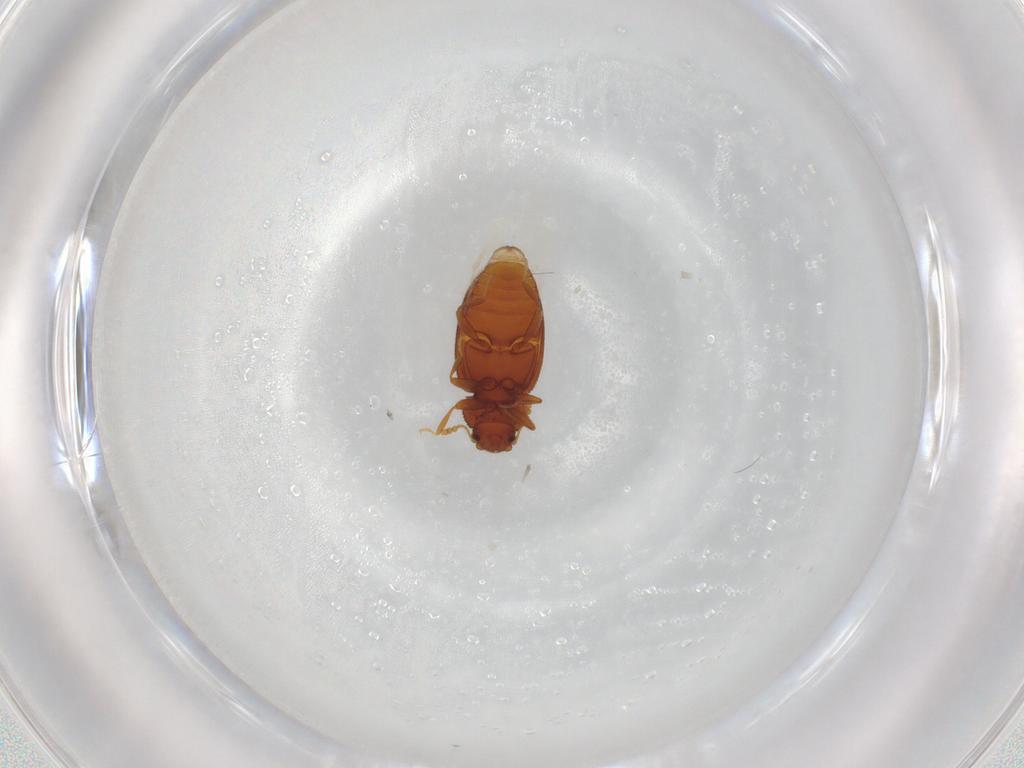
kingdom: Animalia
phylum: Arthropoda
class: Insecta
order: Coleoptera
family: Latridiidae
